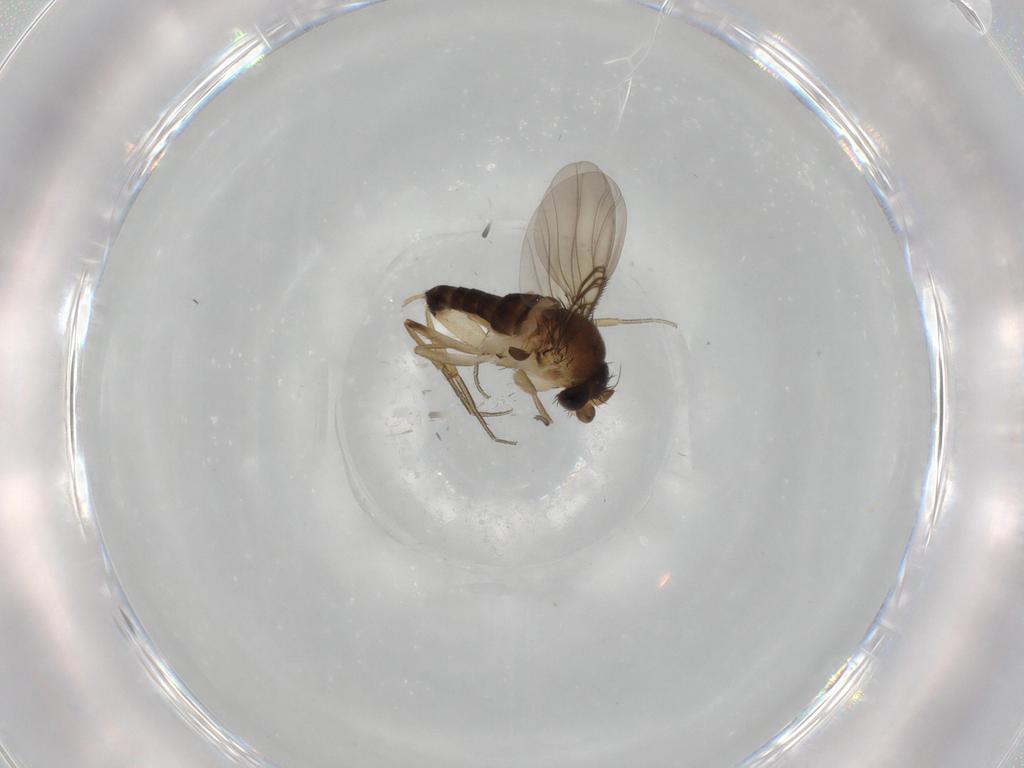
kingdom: Animalia
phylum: Arthropoda
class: Insecta
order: Diptera
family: Phoridae
